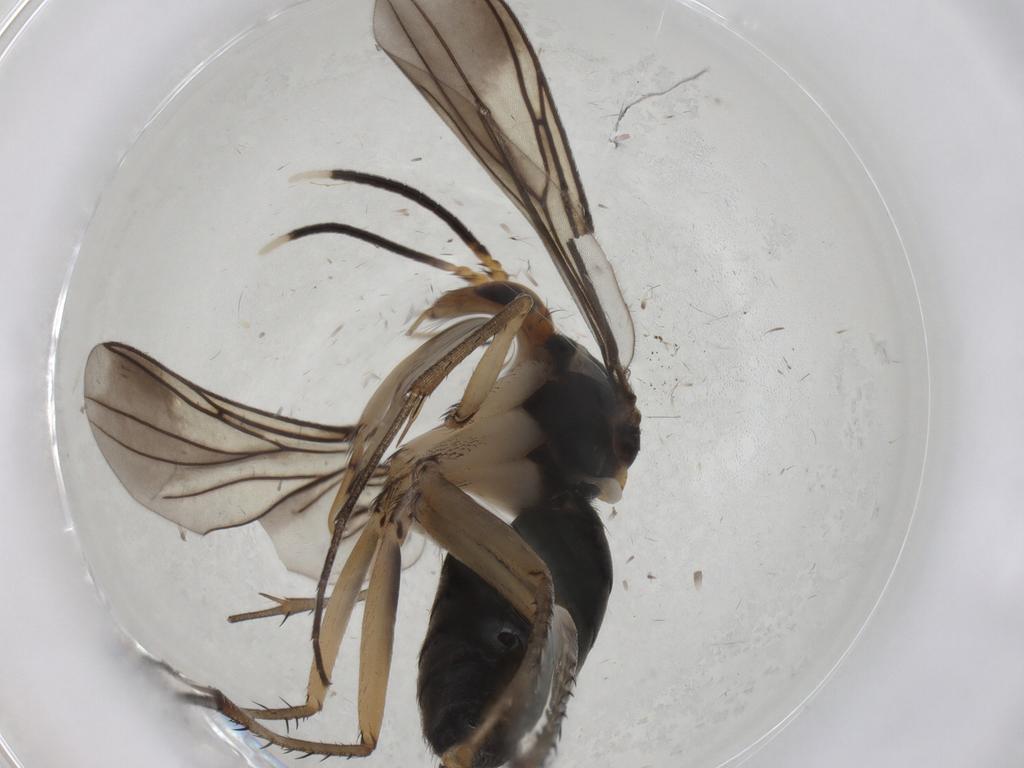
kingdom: Animalia
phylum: Arthropoda
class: Insecta
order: Diptera
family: Mycetophilidae
